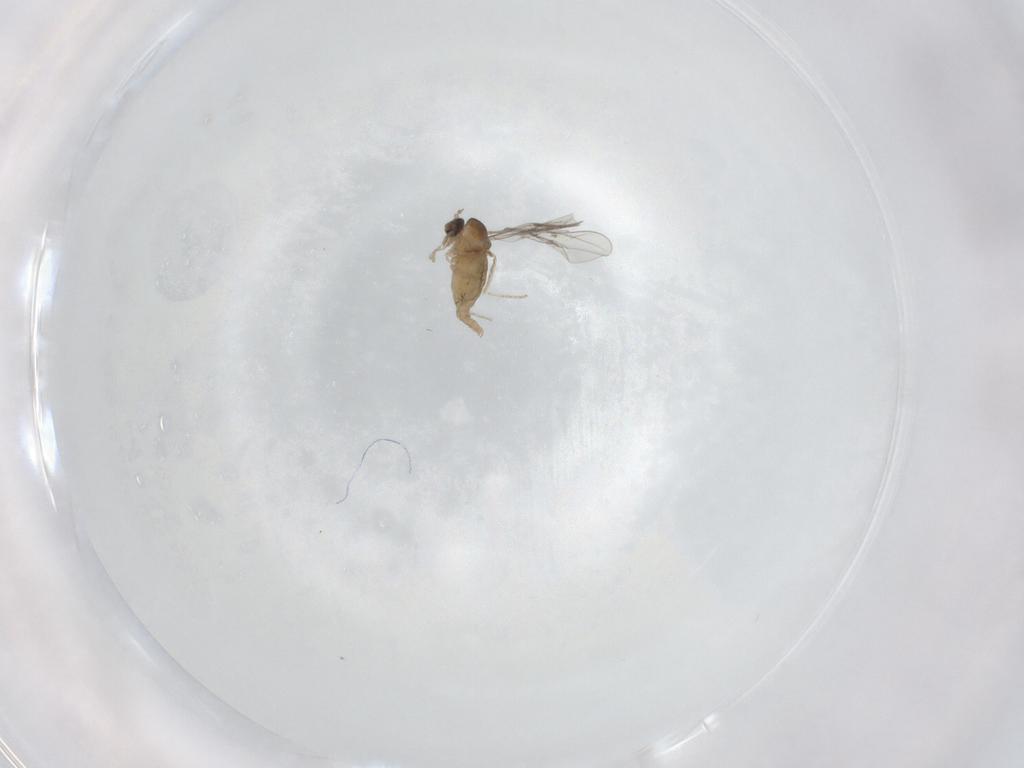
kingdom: Animalia
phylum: Arthropoda
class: Insecta
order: Diptera
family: Cecidomyiidae
